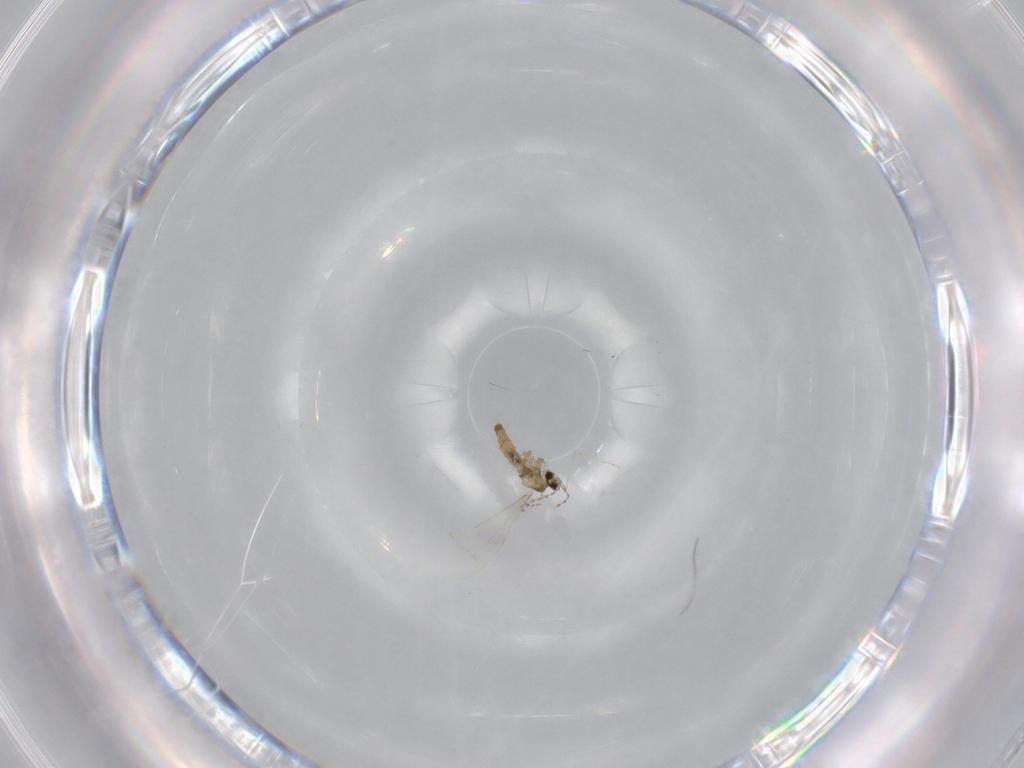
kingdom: Animalia
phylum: Arthropoda
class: Insecta
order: Diptera
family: Cecidomyiidae
